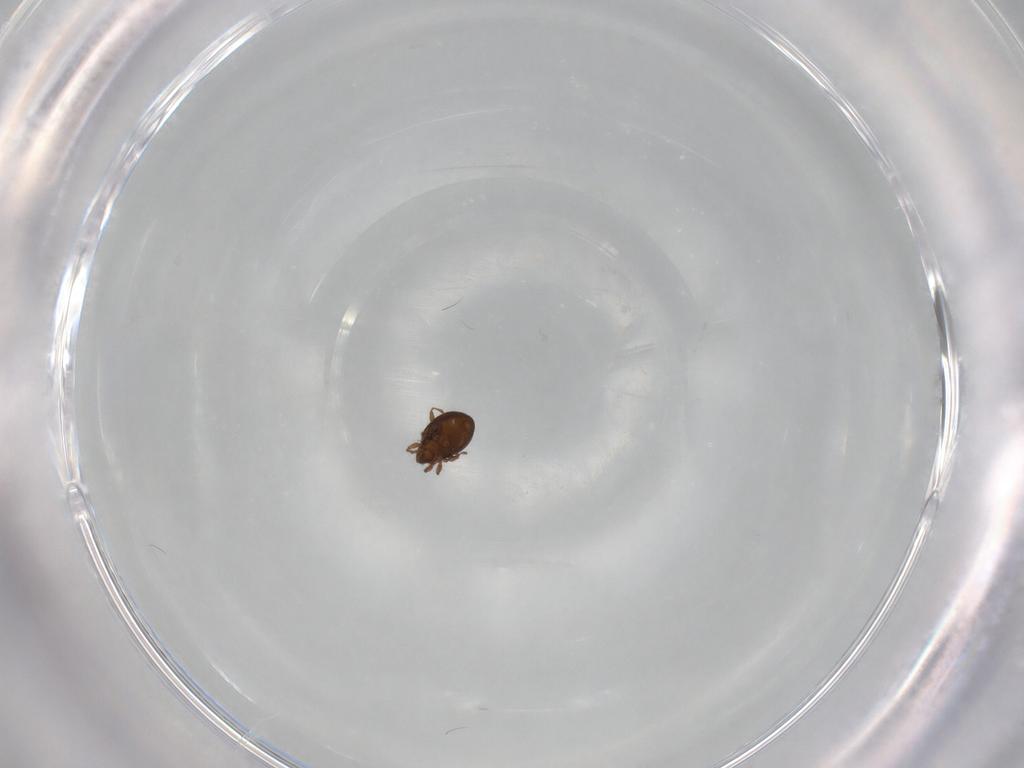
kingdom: Animalia
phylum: Arthropoda
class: Arachnida
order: Sarcoptiformes
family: Oribatulidae
